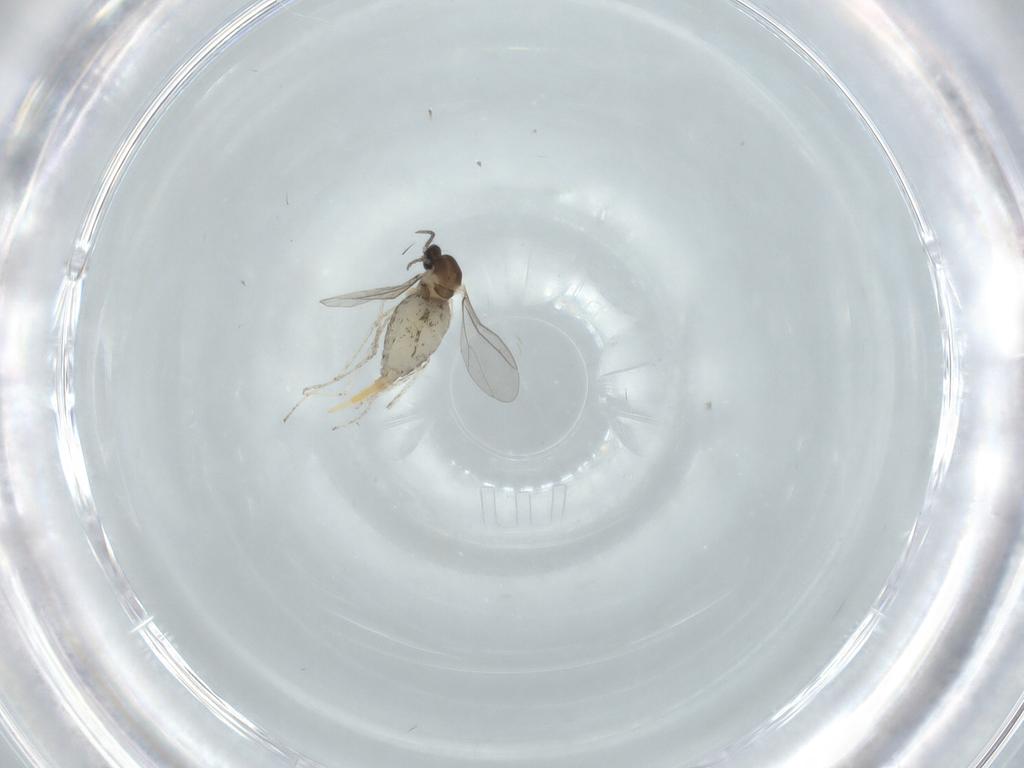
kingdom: Animalia
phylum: Arthropoda
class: Insecta
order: Diptera
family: Cecidomyiidae
